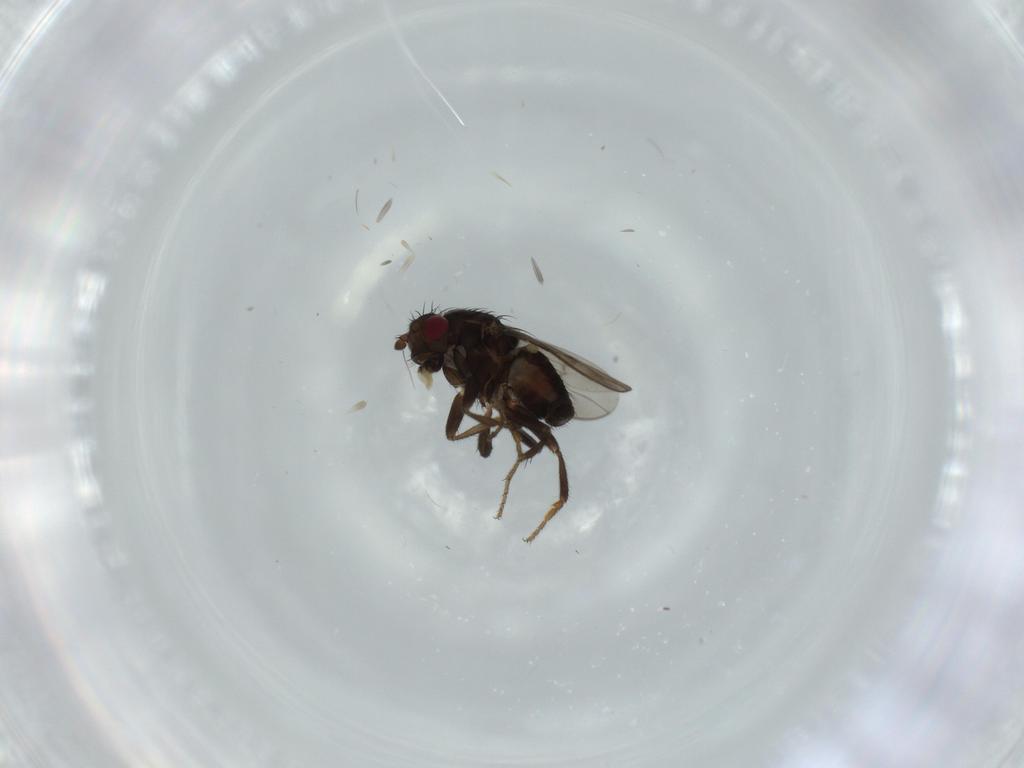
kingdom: Animalia
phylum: Arthropoda
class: Insecta
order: Diptera
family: Sphaeroceridae
